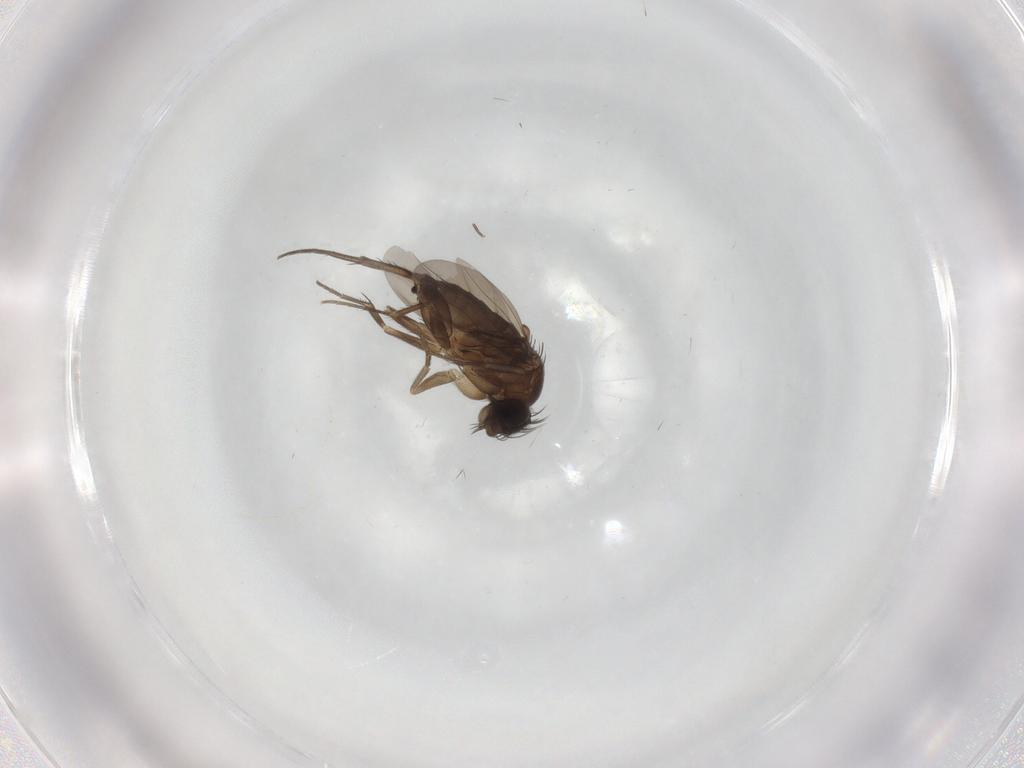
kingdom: Animalia
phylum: Arthropoda
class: Insecta
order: Diptera
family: Phoridae
